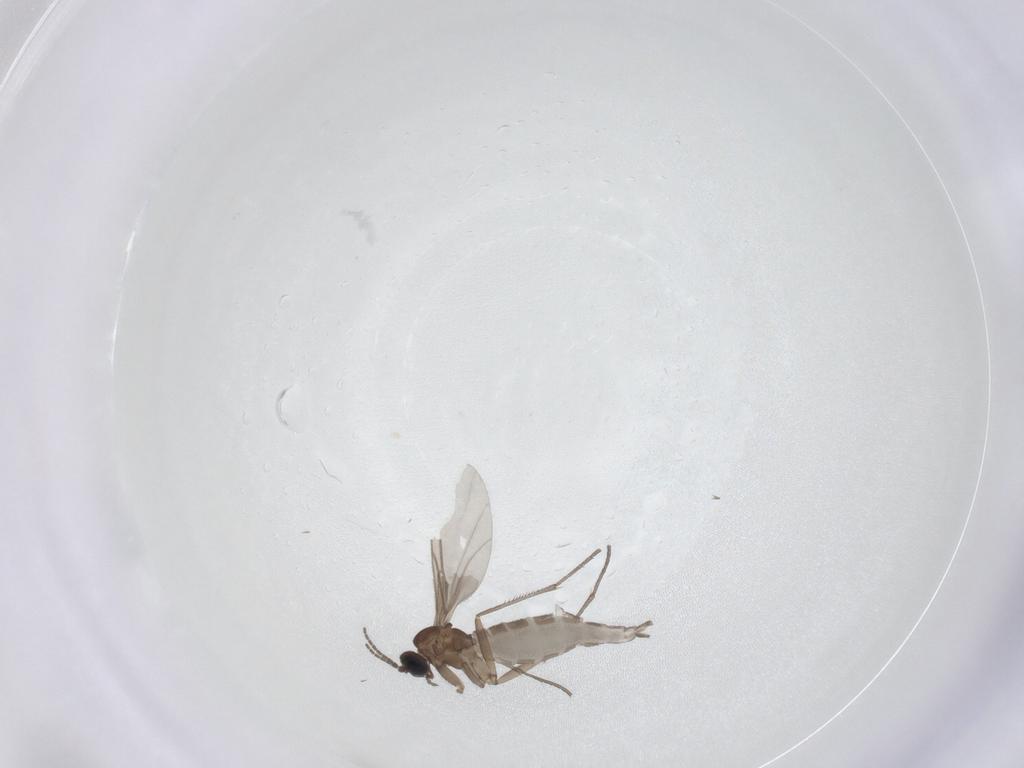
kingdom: Animalia
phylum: Arthropoda
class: Insecta
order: Diptera
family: Sciaridae
